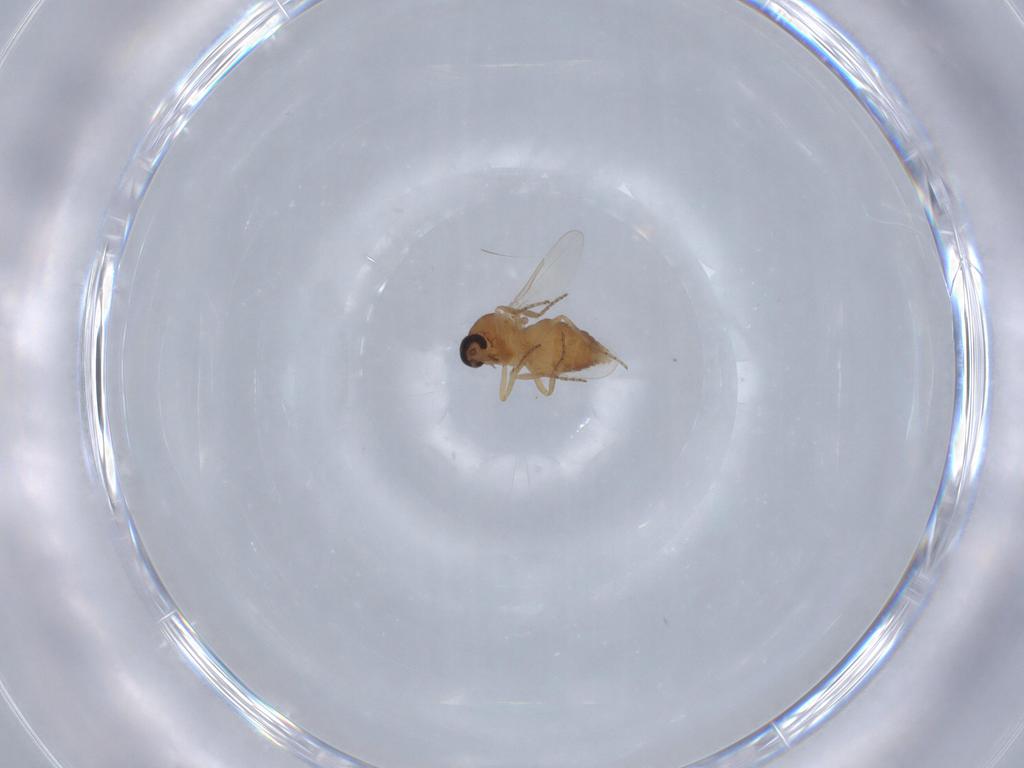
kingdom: Animalia
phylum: Arthropoda
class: Insecta
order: Diptera
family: Ceratopogonidae
